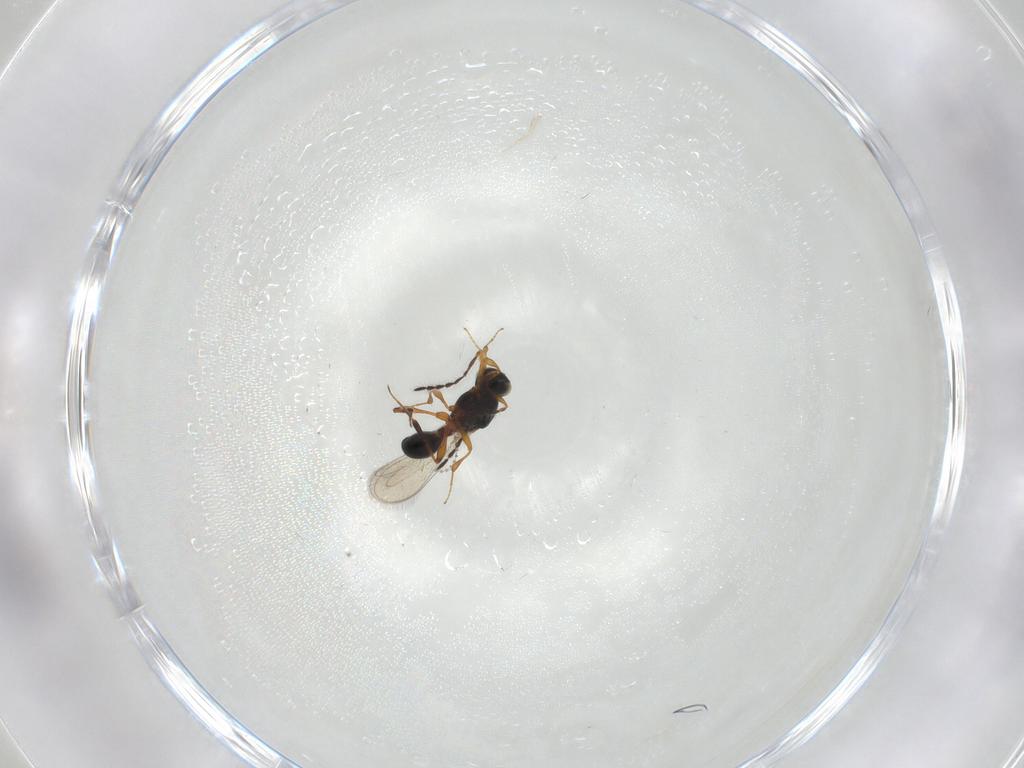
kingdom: Animalia
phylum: Arthropoda
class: Insecta
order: Hymenoptera
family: Platygastridae
